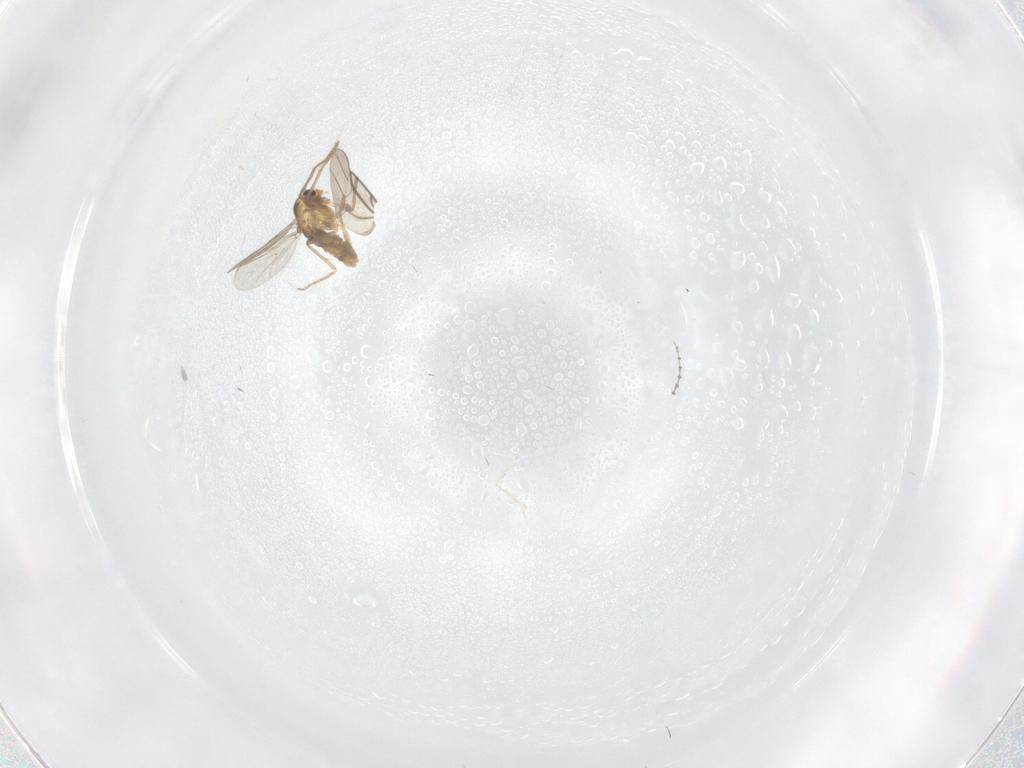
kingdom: Animalia
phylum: Arthropoda
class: Insecta
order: Diptera
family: Chironomidae
